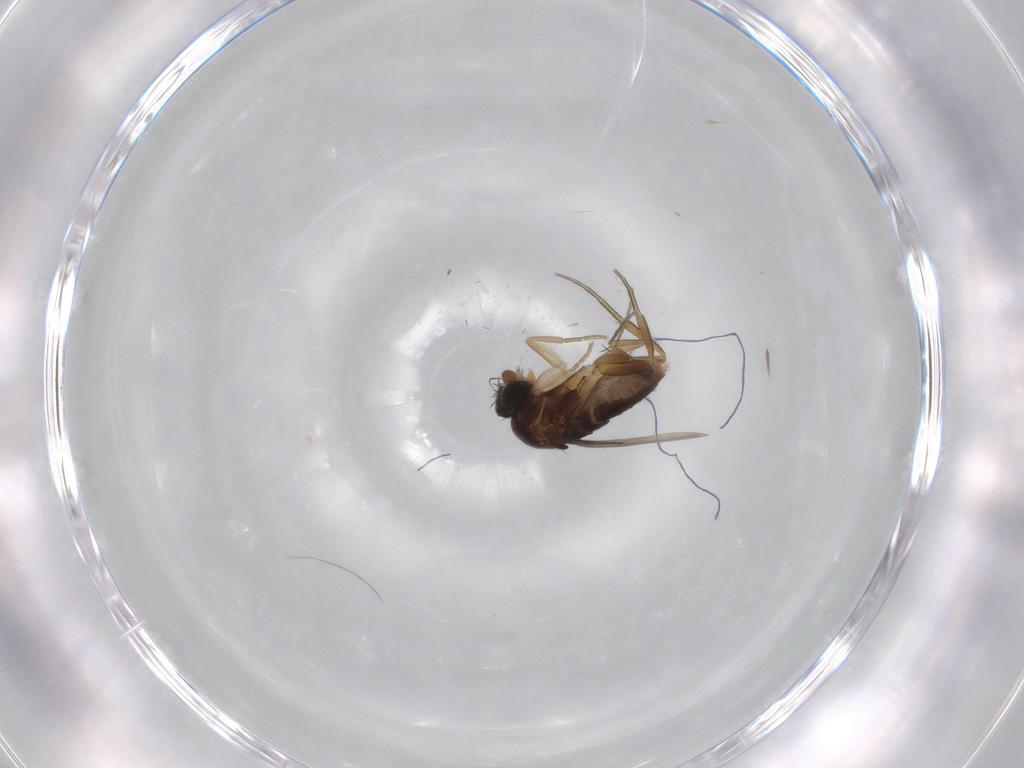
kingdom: Animalia
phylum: Arthropoda
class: Insecta
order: Diptera
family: Phoridae
